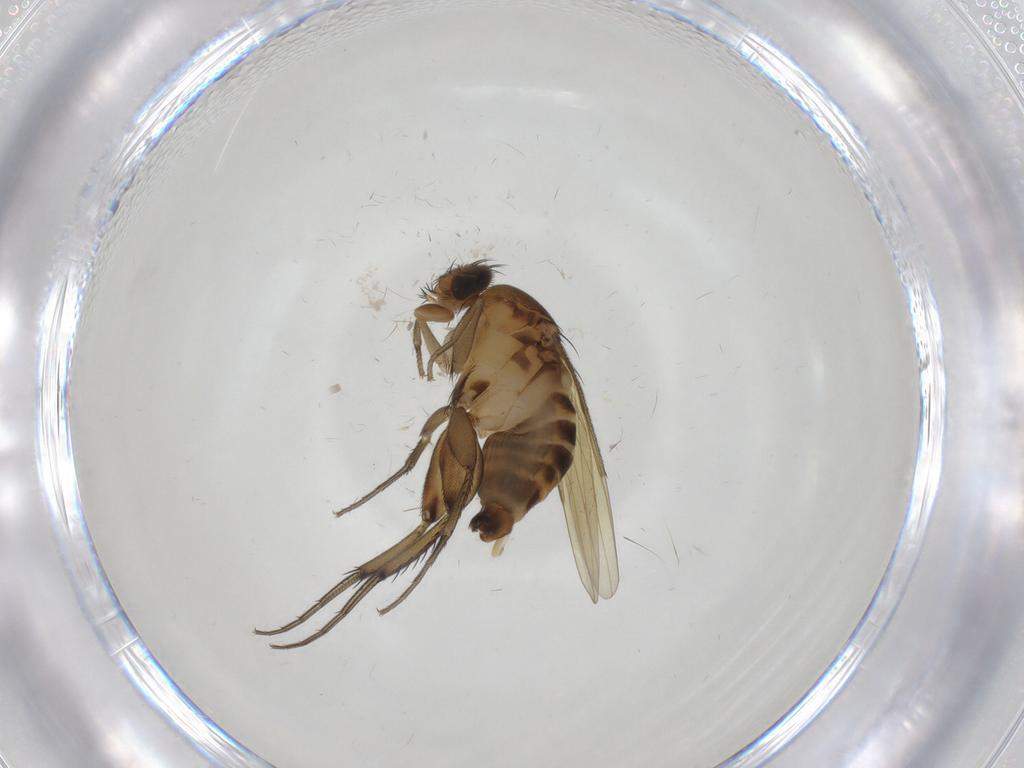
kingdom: Animalia
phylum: Arthropoda
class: Insecta
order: Diptera
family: Phoridae
